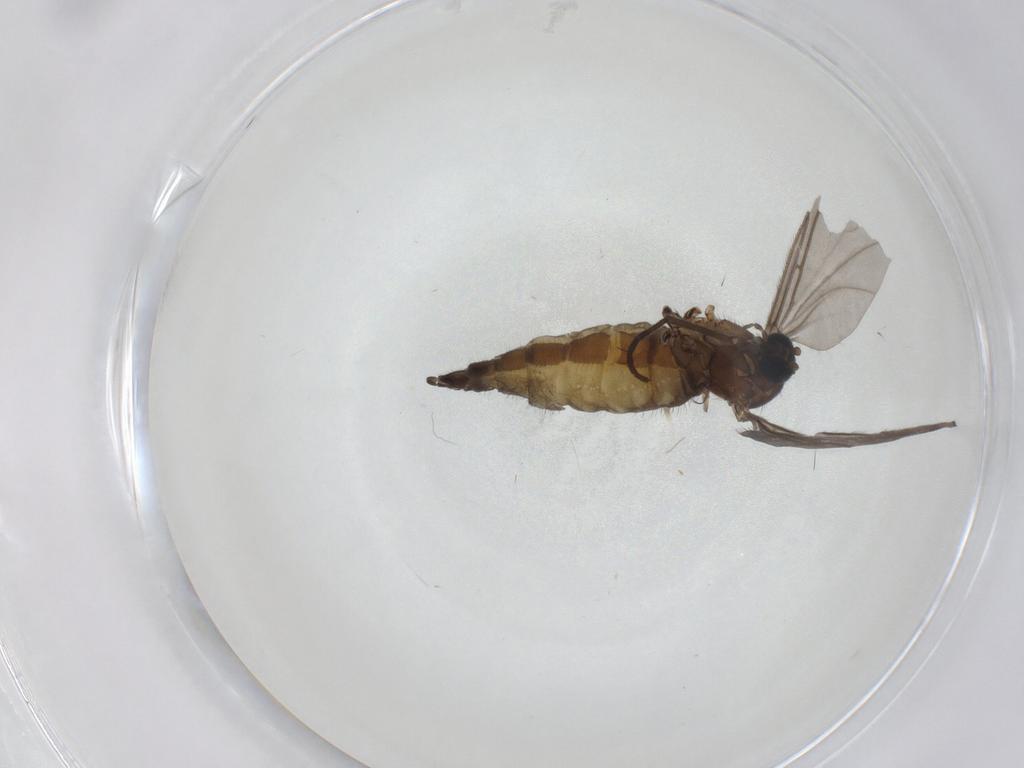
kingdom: Animalia
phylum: Arthropoda
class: Insecta
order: Diptera
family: Sciaridae
